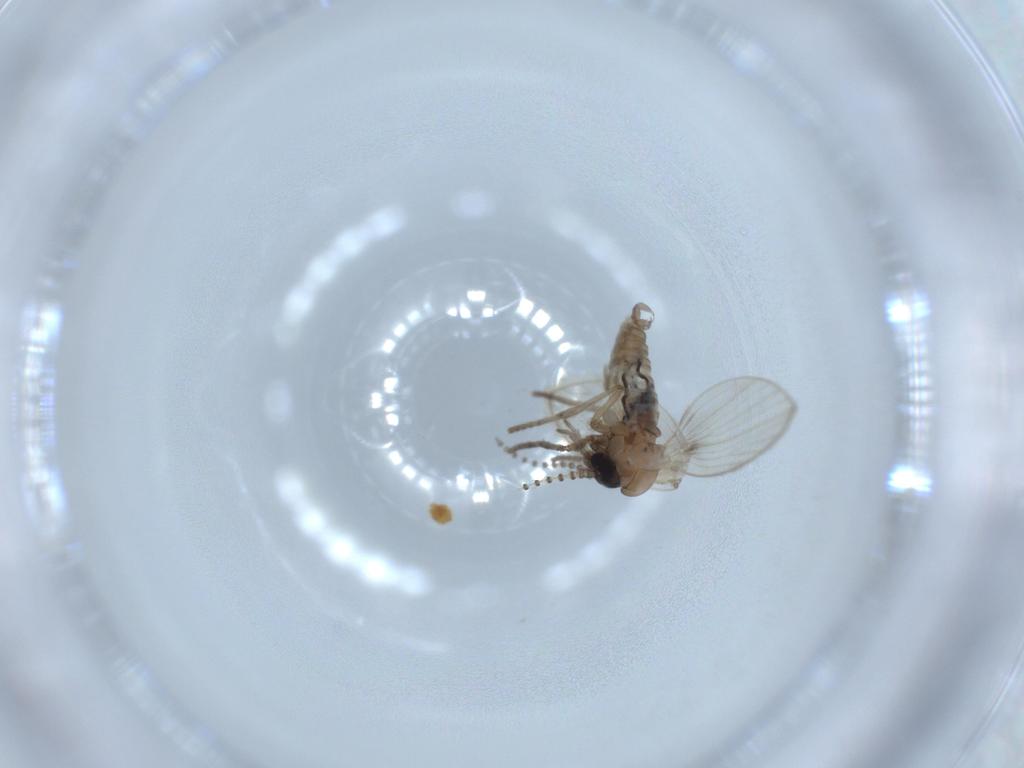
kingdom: Animalia
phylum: Arthropoda
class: Insecta
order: Diptera
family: Sciaridae
